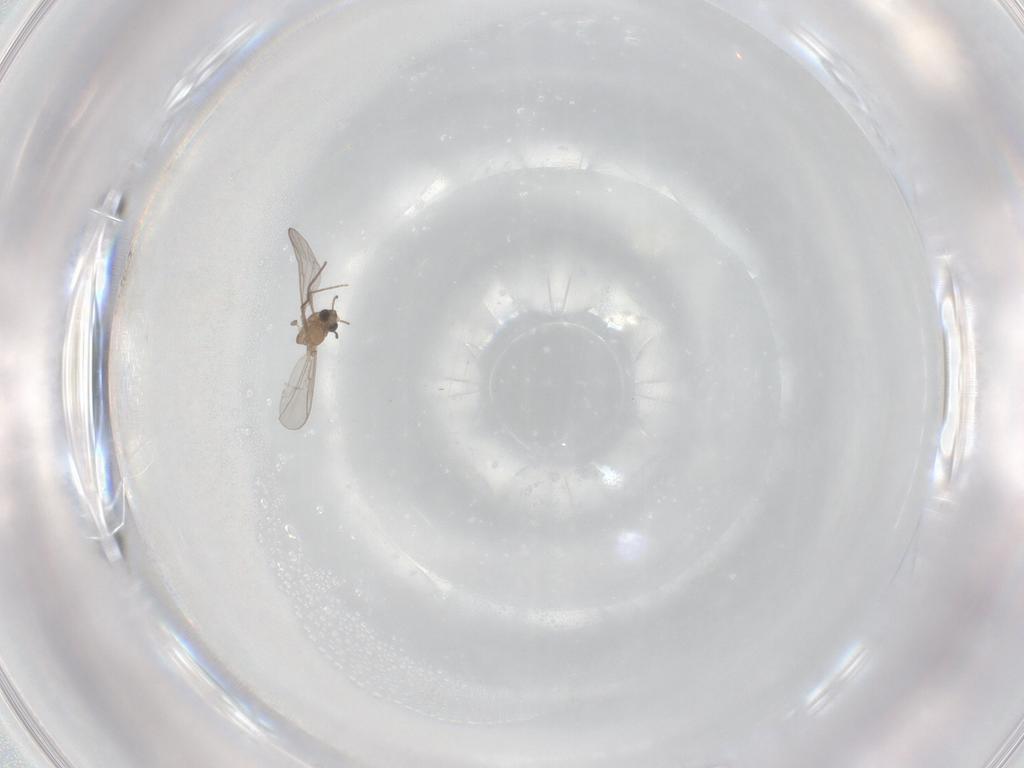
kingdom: Animalia
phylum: Arthropoda
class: Insecta
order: Diptera
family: Chironomidae
